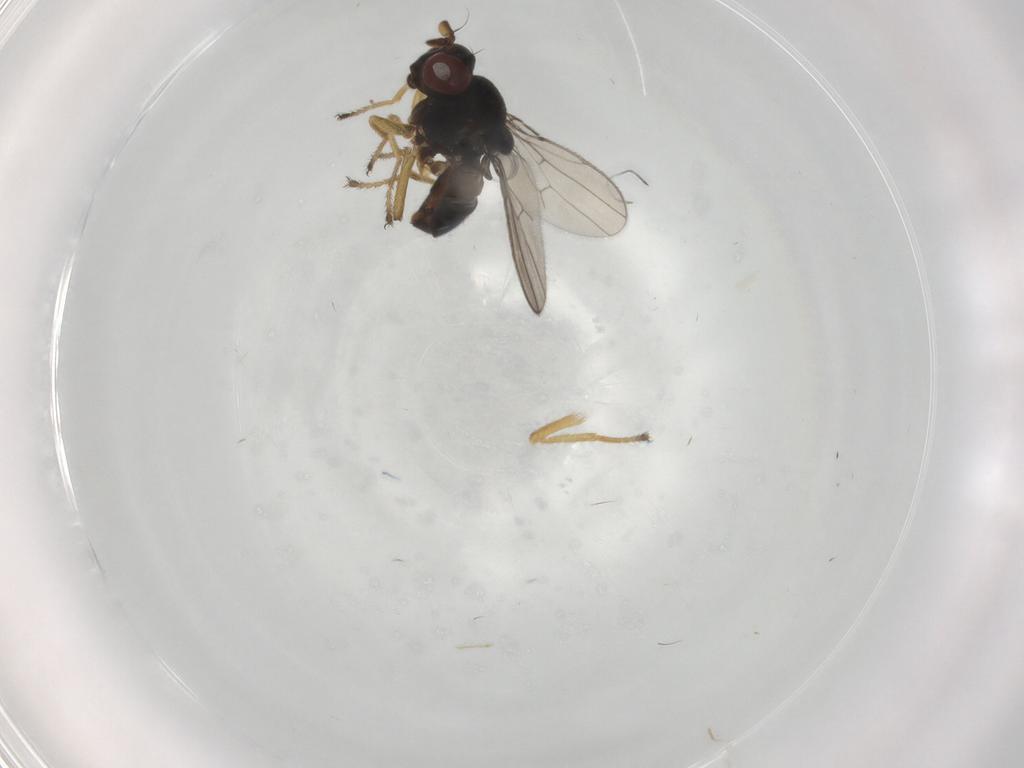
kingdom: Animalia
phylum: Arthropoda
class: Insecta
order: Diptera
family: Ephydridae
